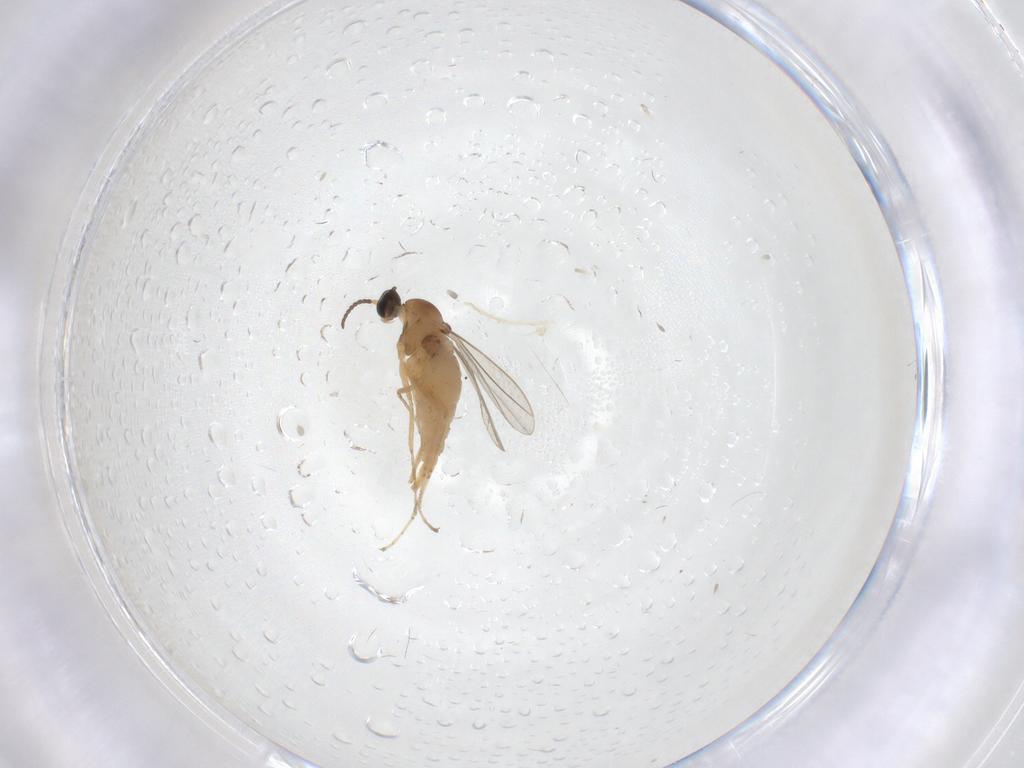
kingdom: Animalia
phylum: Arthropoda
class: Insecta
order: Diptera
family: Cecidomyiidae
